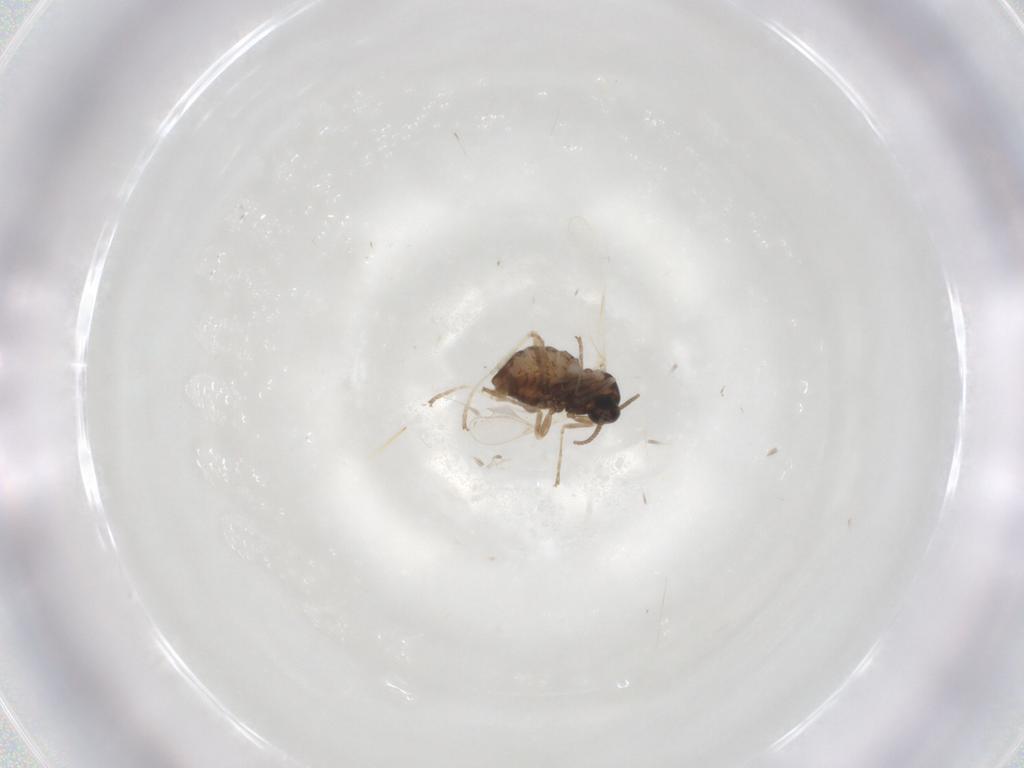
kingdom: Animalia
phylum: Arthropoda
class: Insecta
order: Diptera
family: Cecidomyiidae
